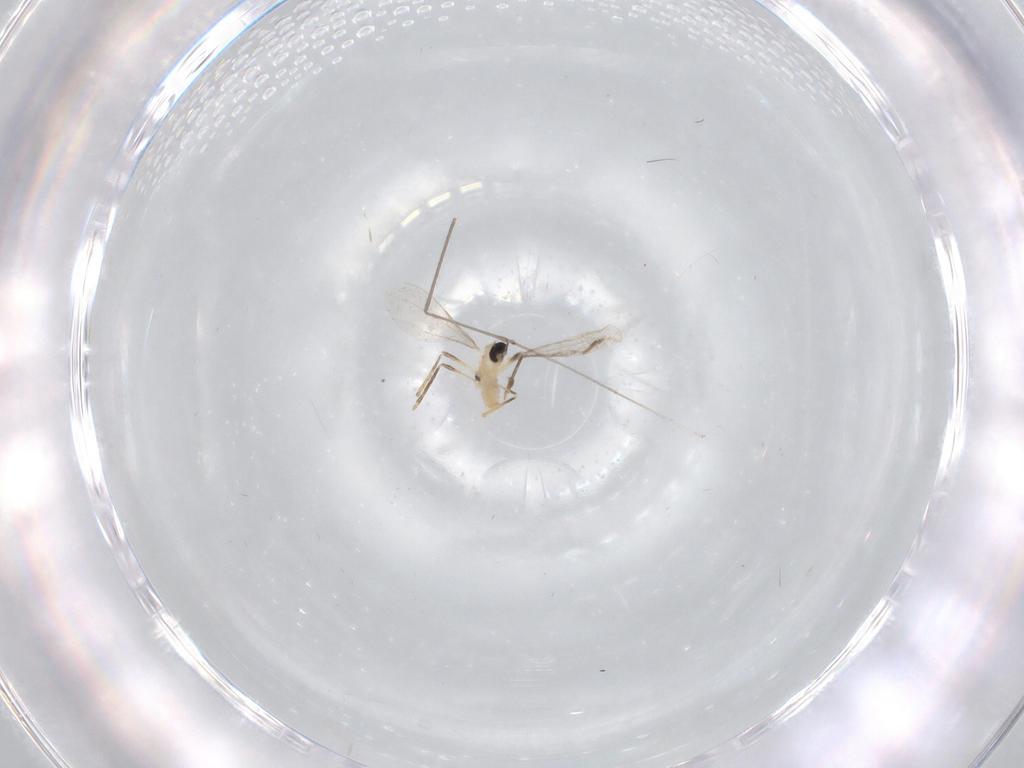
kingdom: Animalia
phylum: Arthropoda
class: Insecta
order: Diptera
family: Cecidomyiidae
